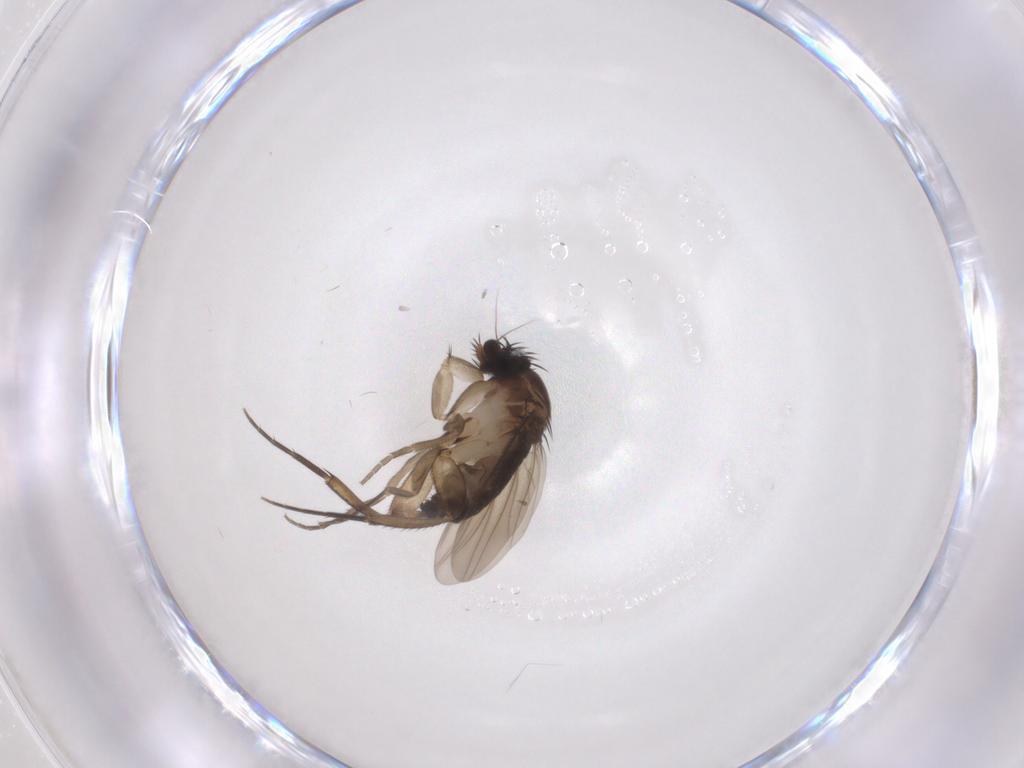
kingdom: Animalia
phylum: Arthropoda
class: Insecta
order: Diptera
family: Phoridae
